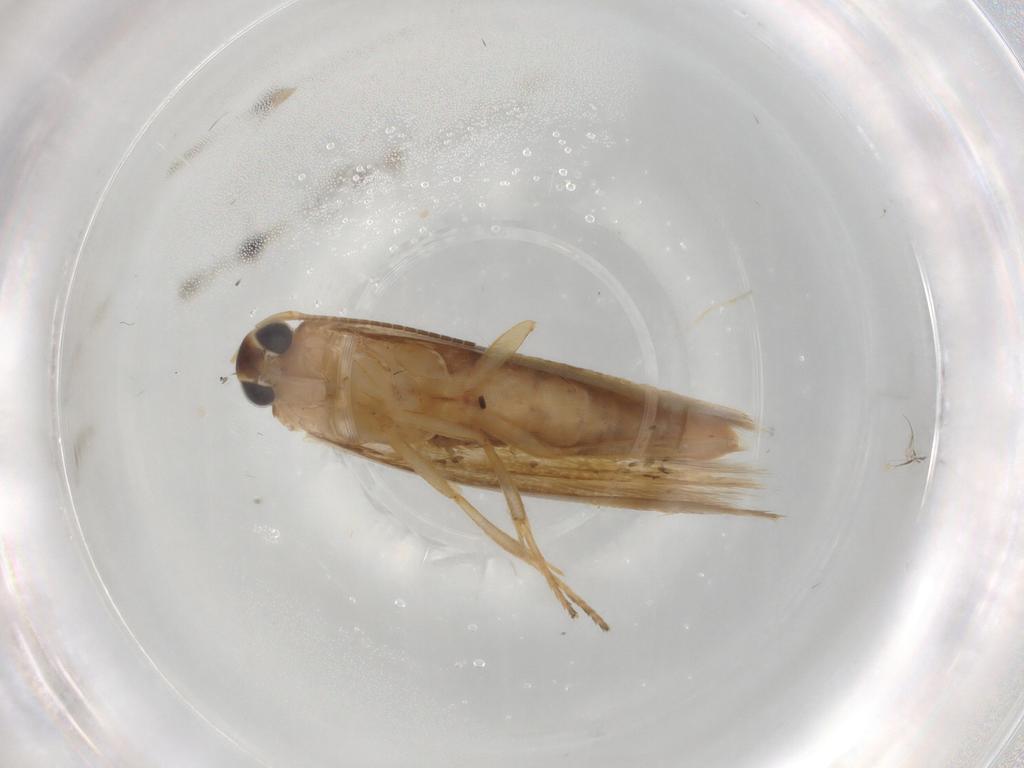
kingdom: Animalia
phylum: Arthropoda
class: Insecta
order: Lepidoptera
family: Oecophoridae
